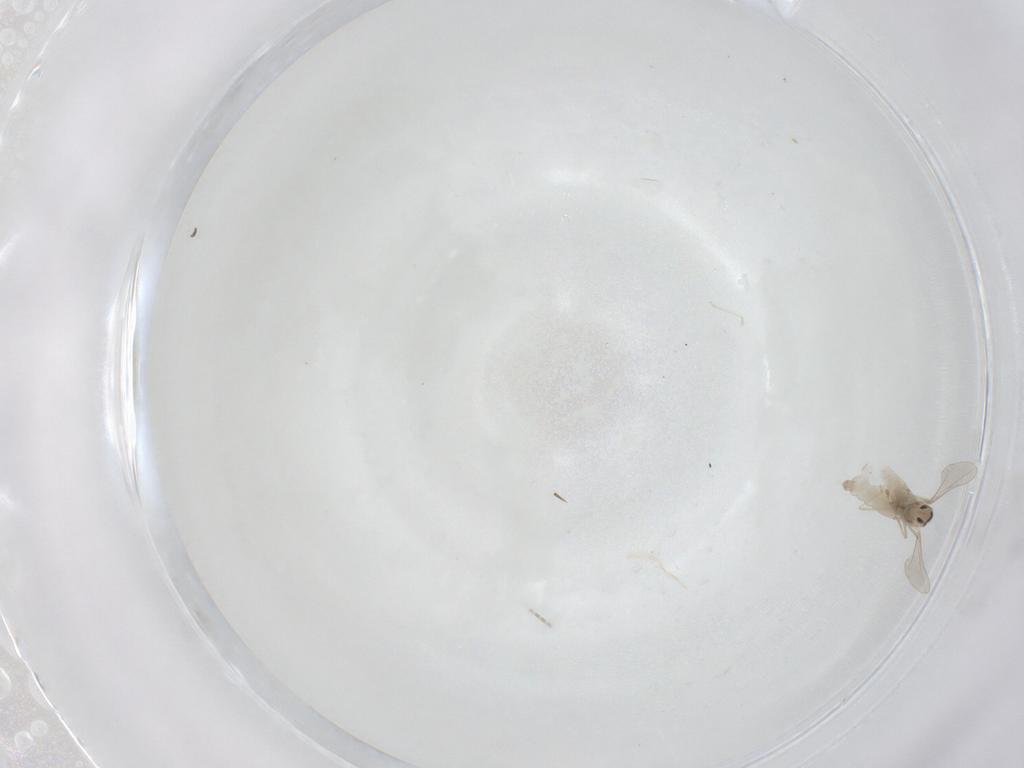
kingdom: Animalia
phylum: Arthropoda
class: Insecta
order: Diptera
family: Cecidomyiidae
